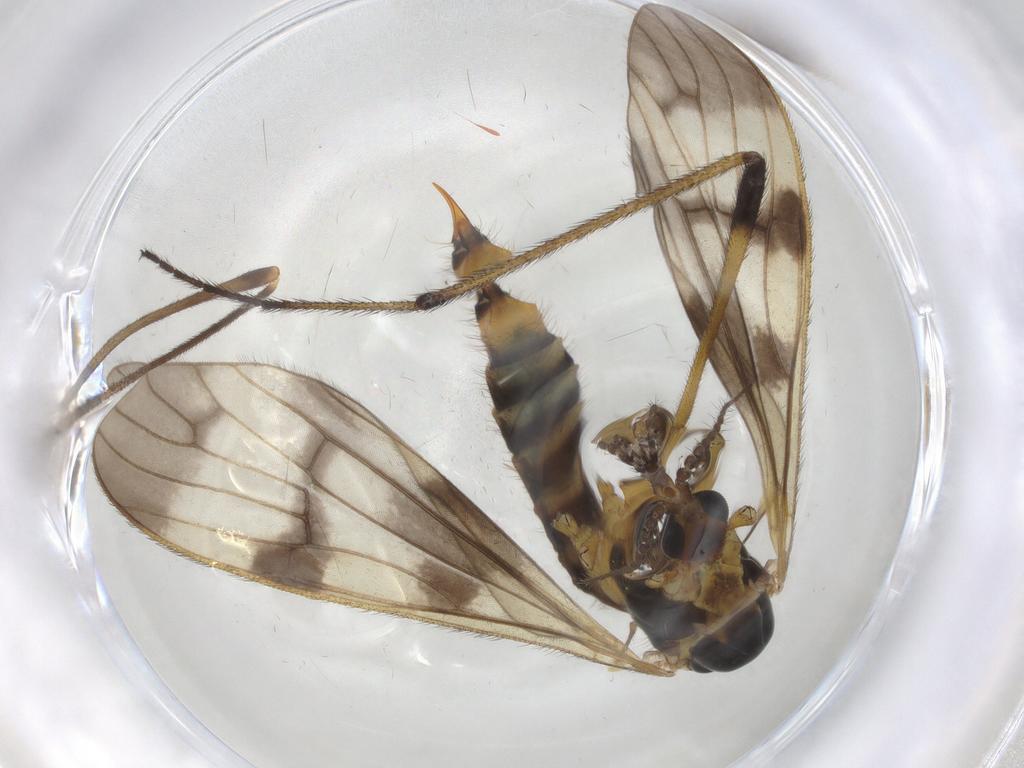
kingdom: Animalia
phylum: Arthropoda
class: Insecta
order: Diptera
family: Limoniidae
